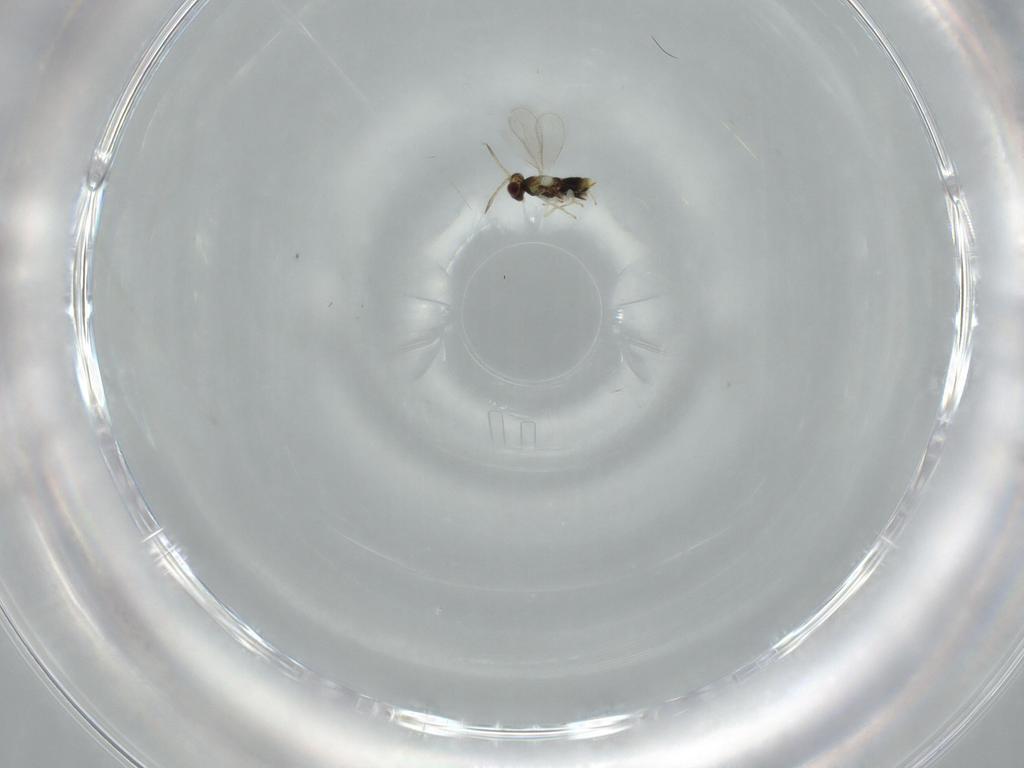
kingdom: Animalia
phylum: Arthropoda
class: Insecta
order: Hymenoptera
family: Aphelinidae
